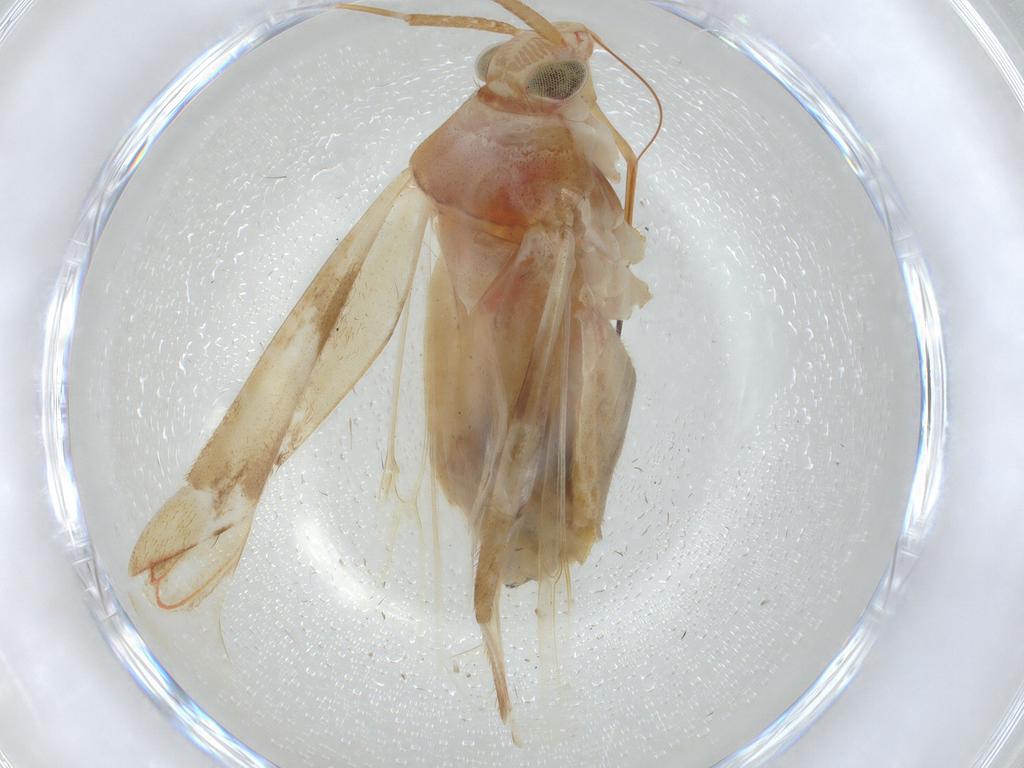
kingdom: Animalia
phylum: Arthropoda
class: Insecta
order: Hemiptera
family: Miridae
